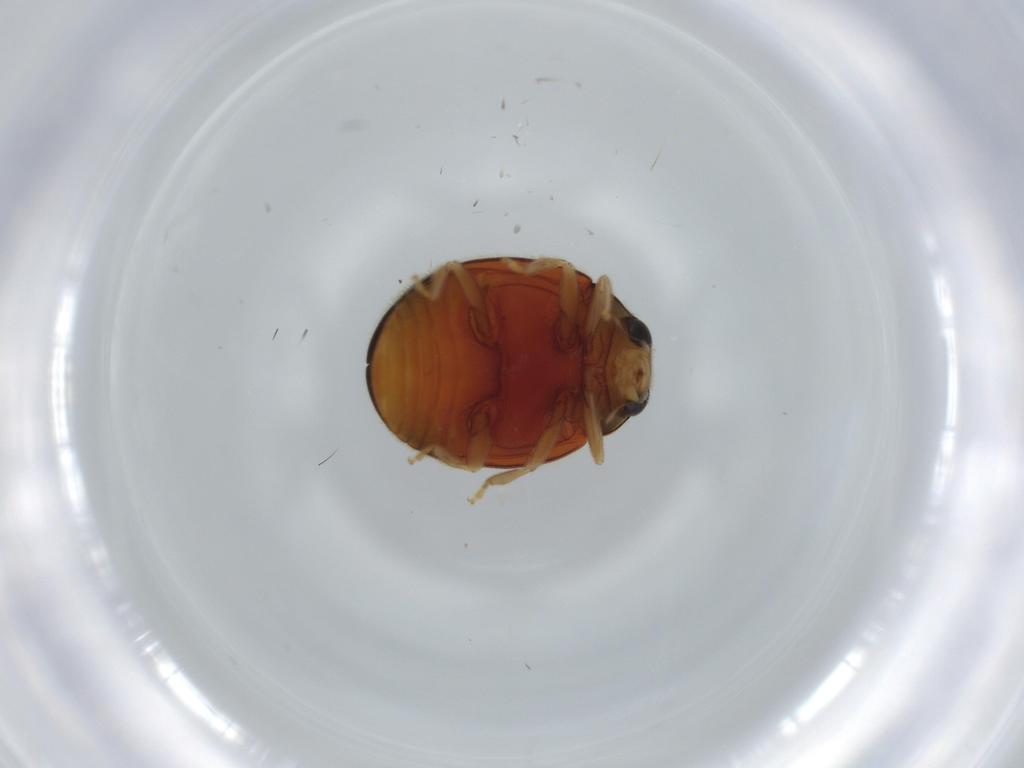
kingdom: Animalia
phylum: Arthropoda
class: Insecta
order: Coleoptera
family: Coccinellidae
